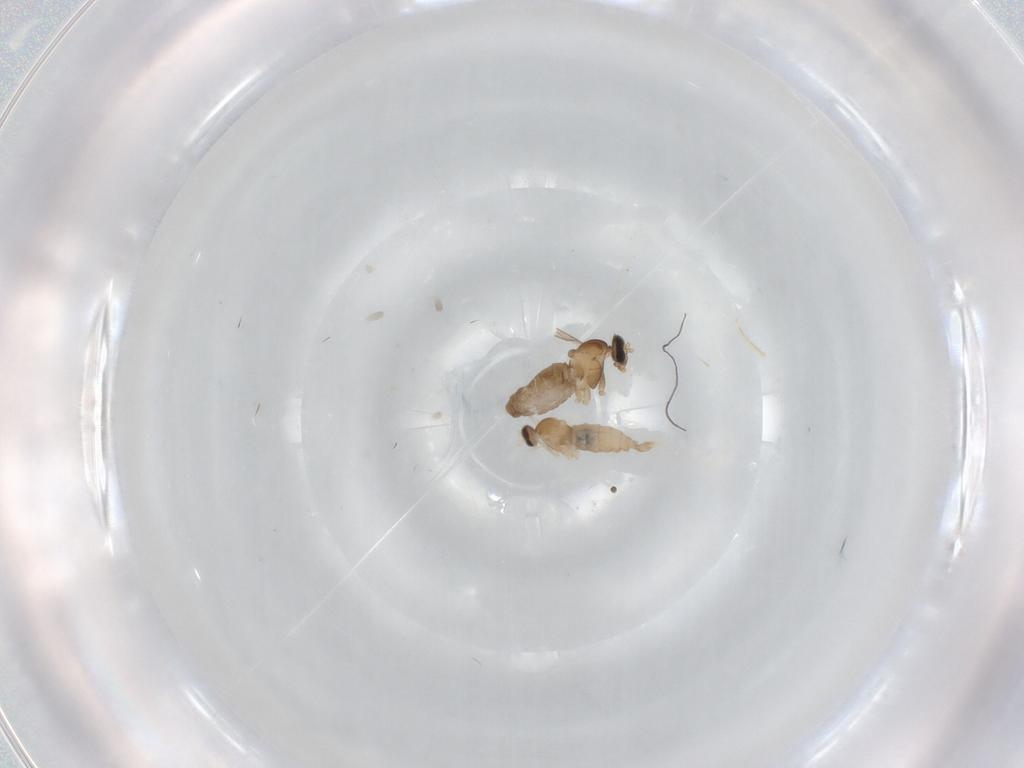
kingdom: Animalia
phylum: Arthropoda
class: Insecta
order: Diptera
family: Cecidomyiidae
